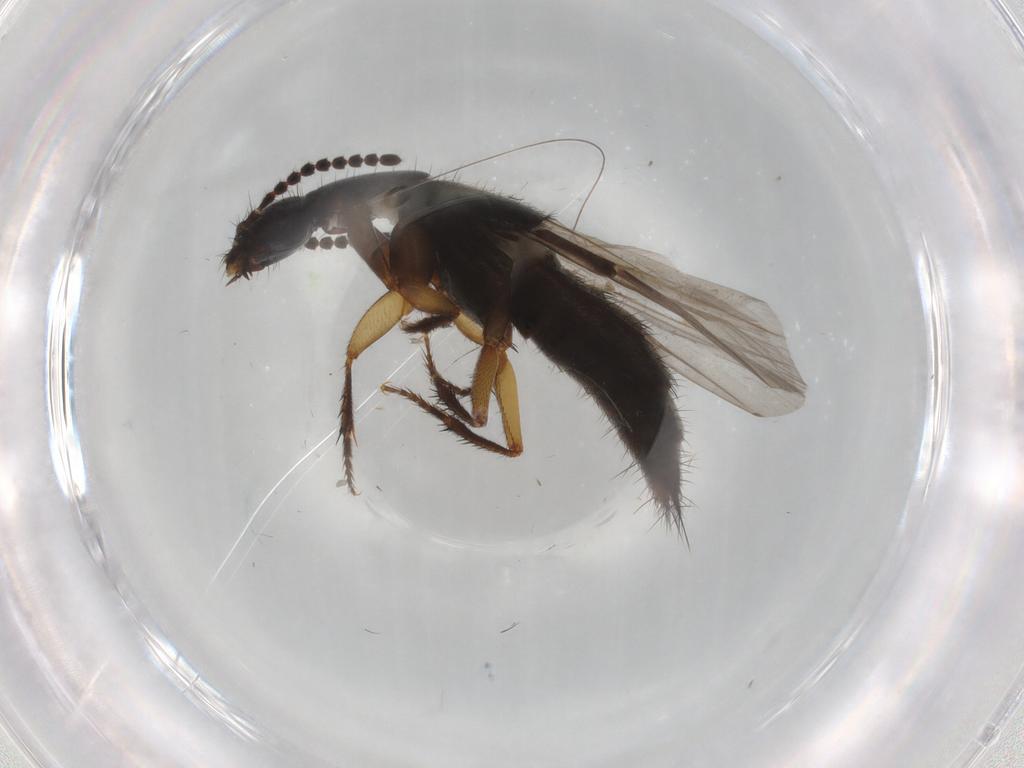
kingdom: Animalia
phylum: Arthropoda
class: Insecta
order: Coleoptera
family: Staphylinidae
